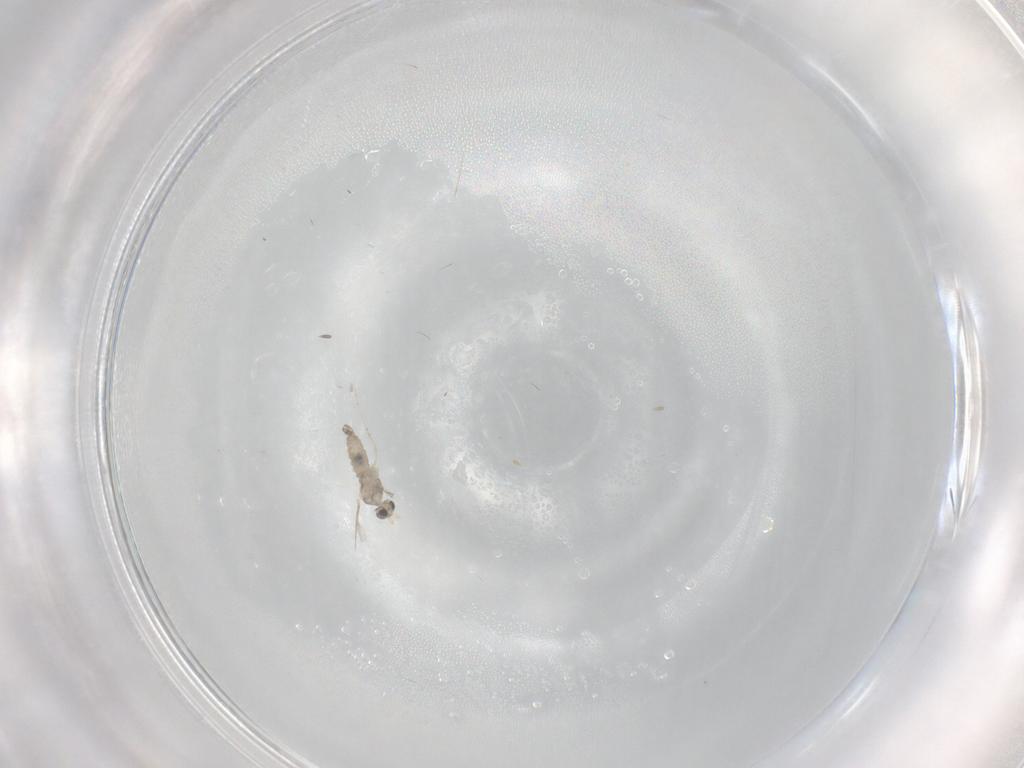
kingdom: Animalia
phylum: Arthropoda
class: Insecta
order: Diptera
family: Cecidomyiidae
